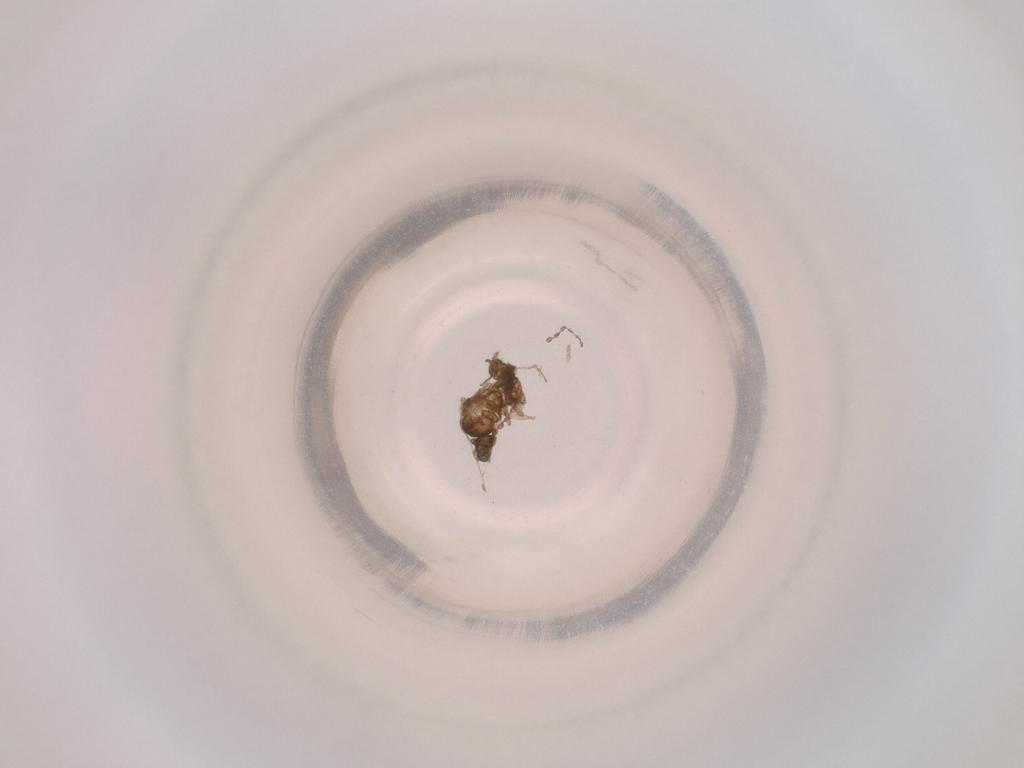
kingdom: Animalia
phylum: Arthropoda
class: Insecta
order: Diptera
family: Cecidomyiidae
